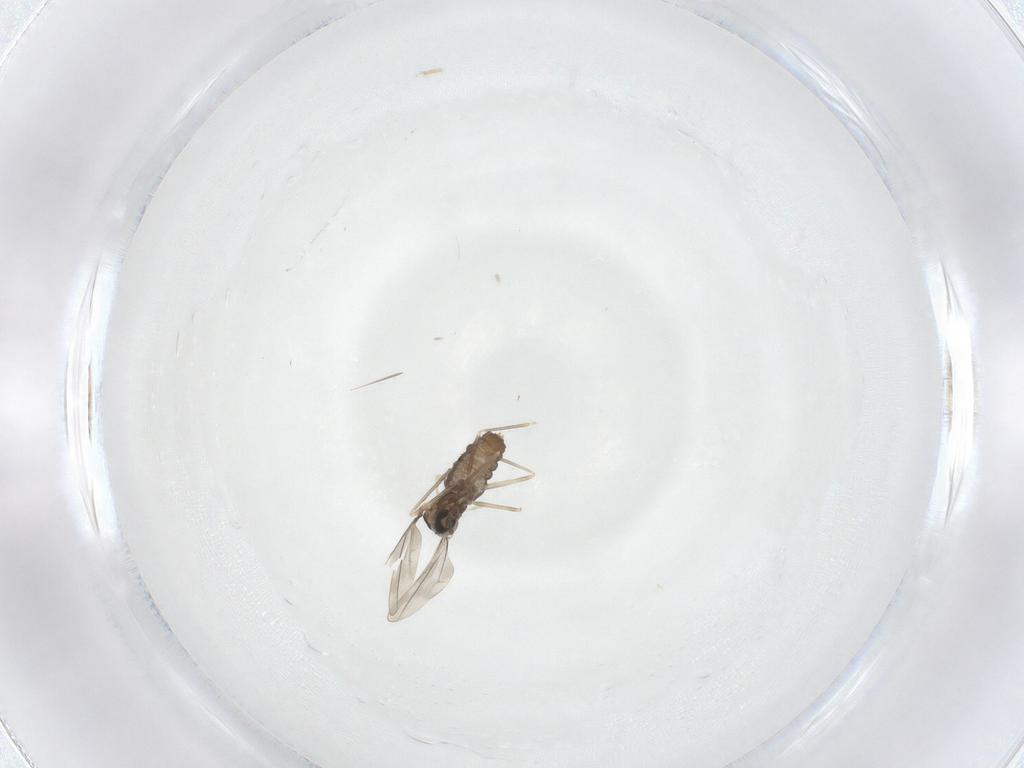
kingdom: Animalia
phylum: Arthropoda
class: Insecta
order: Diptera
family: Cecidomyiidae
